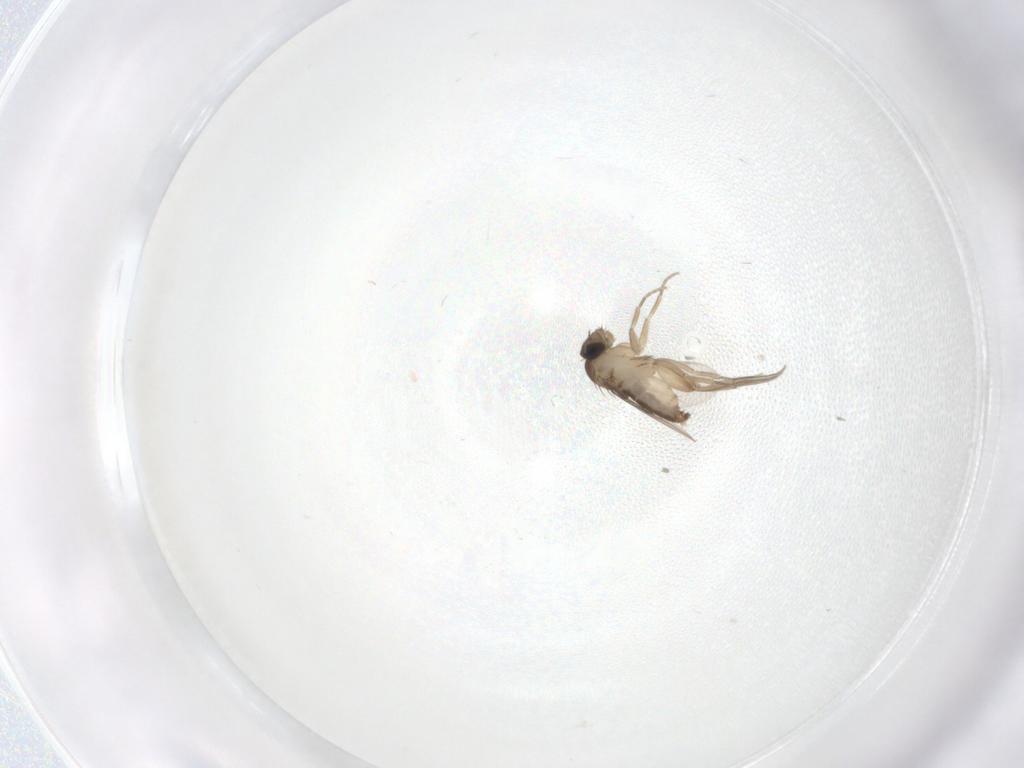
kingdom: Animalia
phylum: Arthropoda
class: Insecta
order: Diptera
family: Phoridae
